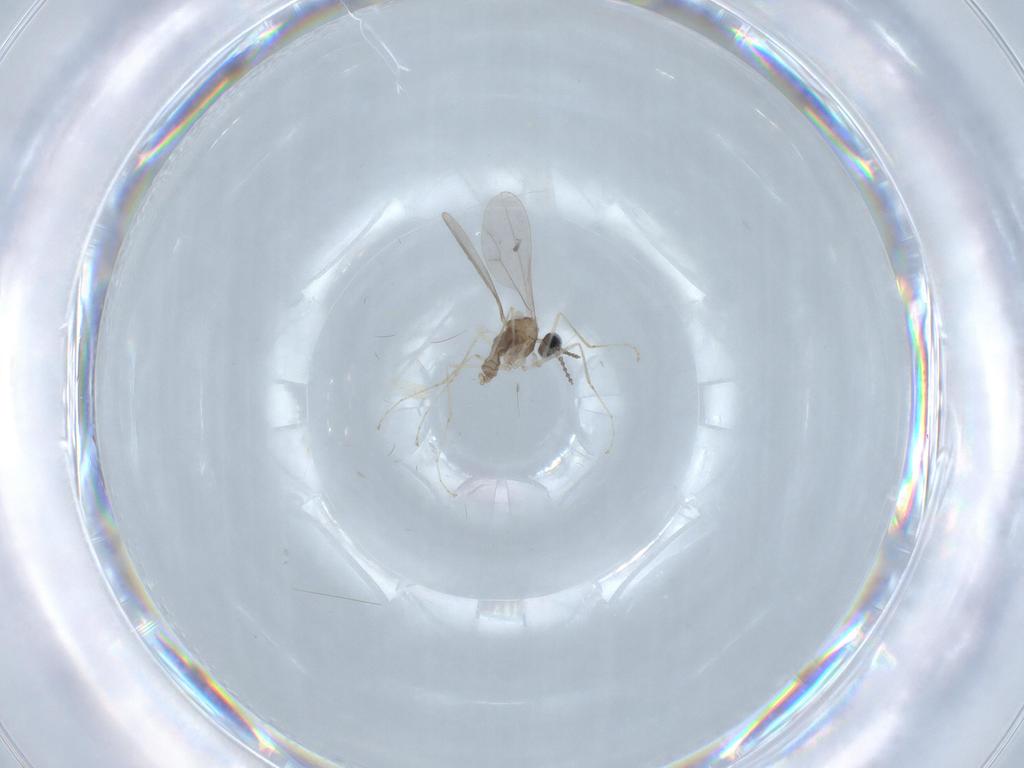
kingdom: Animalia
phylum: Arthropoda
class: Insecta
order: Diptera
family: Cecidomyiidae
